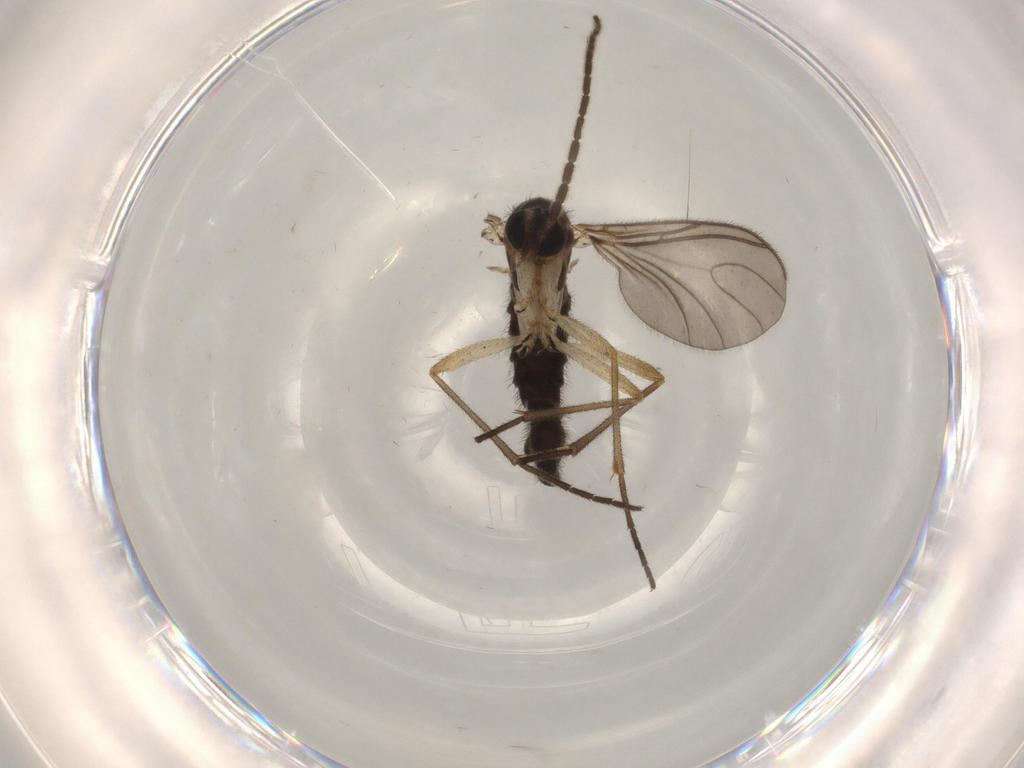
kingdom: Animalia
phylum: Arthropoda
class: Insecta
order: Diptera
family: Sciaridae
